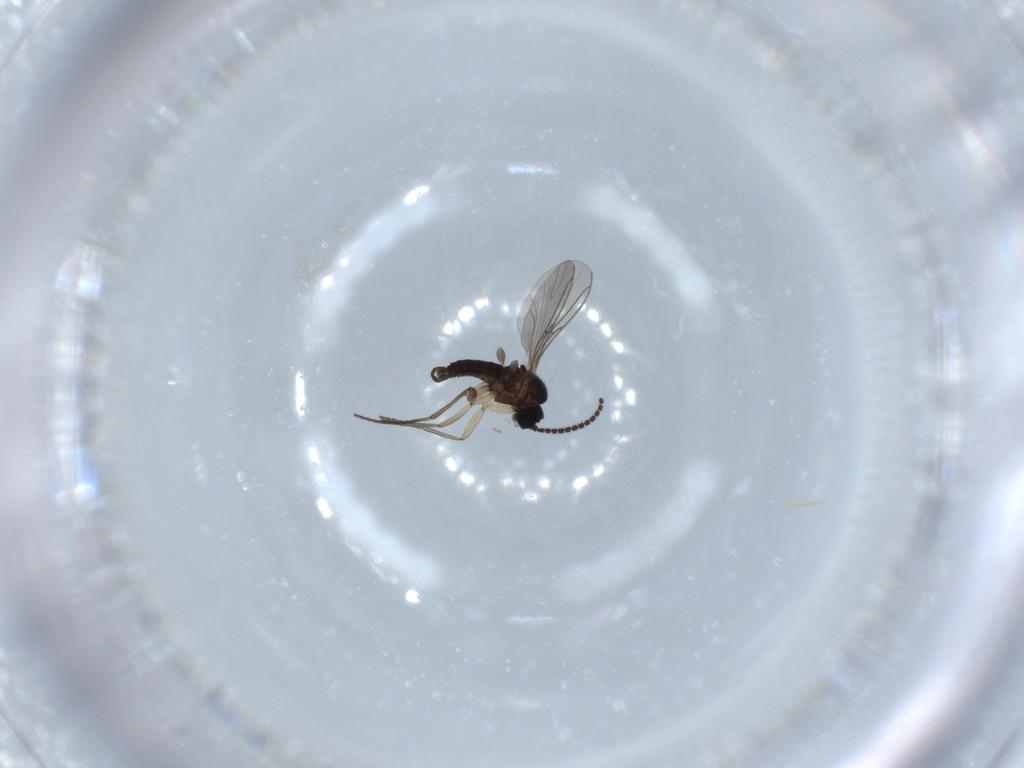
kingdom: Animalia
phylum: Arthropoda
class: Insecta
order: Diptera
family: Sciaridae
